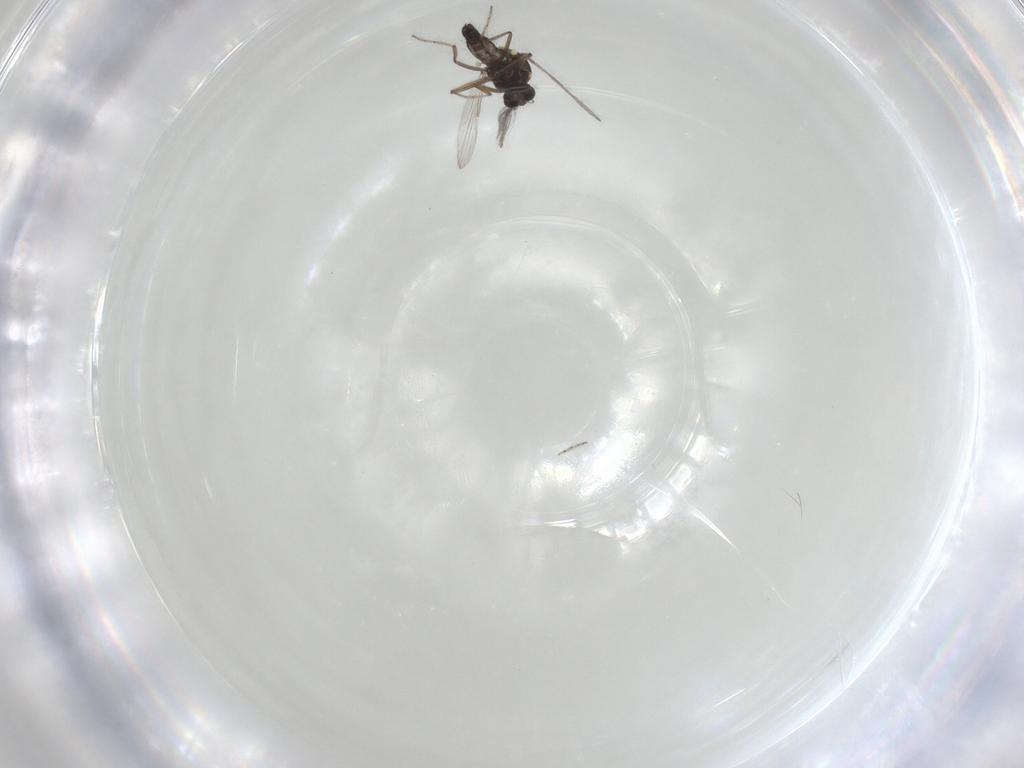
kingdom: Animalia
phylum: Arthropoda
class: Insecta
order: Diptera
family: Ceratopogonidae
